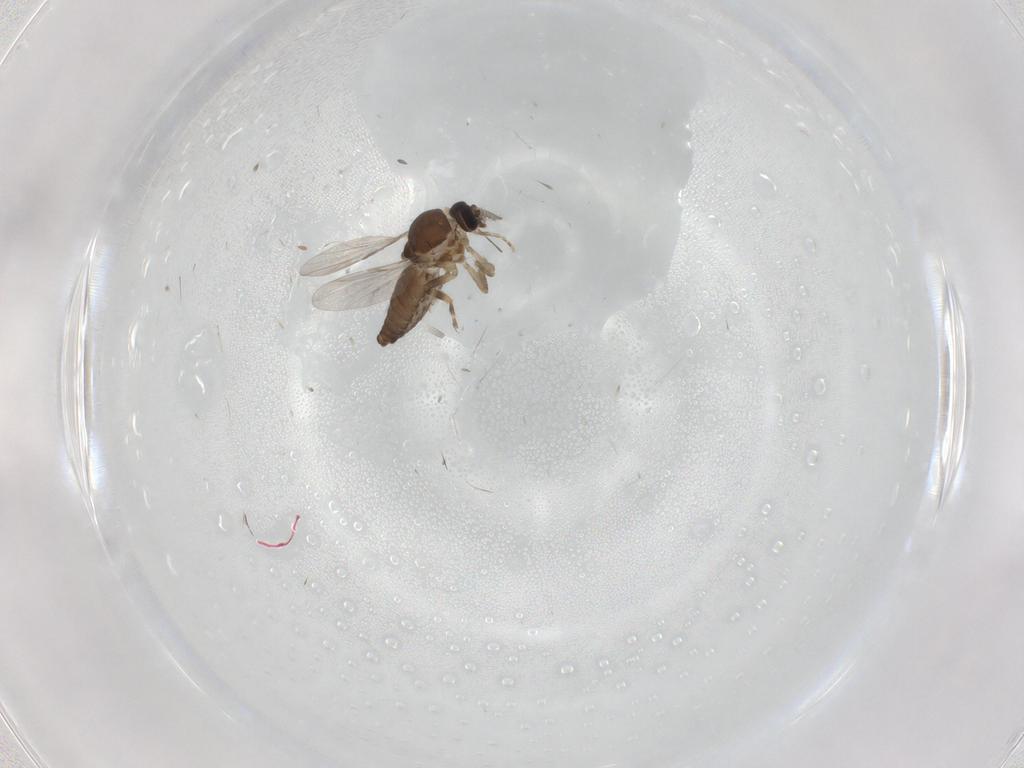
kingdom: Animalia
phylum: Arthropoda
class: Insecta
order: Diptera
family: Ceratopogonidae
